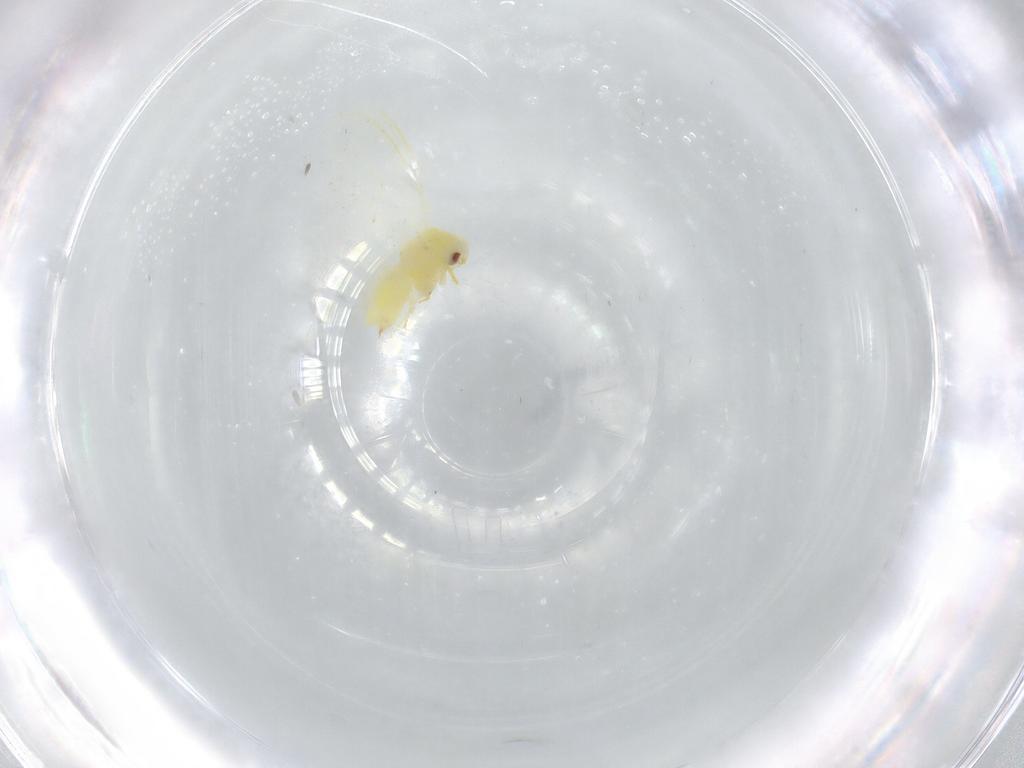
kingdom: Animalia
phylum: Arthropoda
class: Insecta
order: Hemiptera
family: Aleyrodidae
